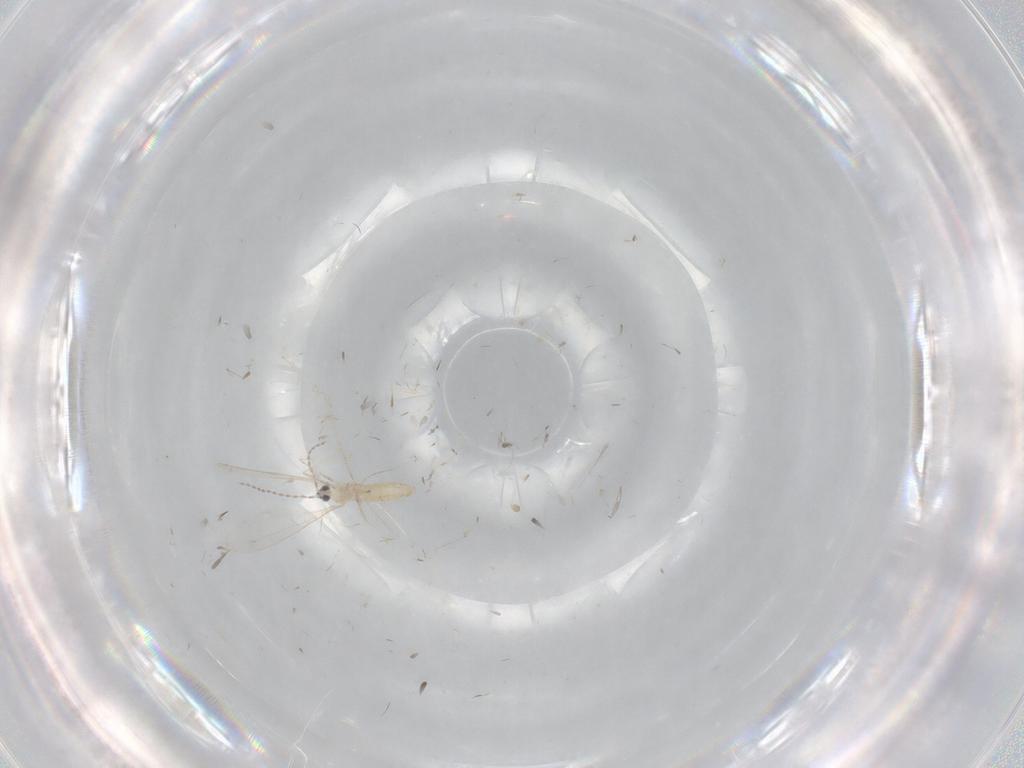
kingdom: Animalia
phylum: Arthropoda
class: Insecta
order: Diptera
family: Cecidomyiidae
